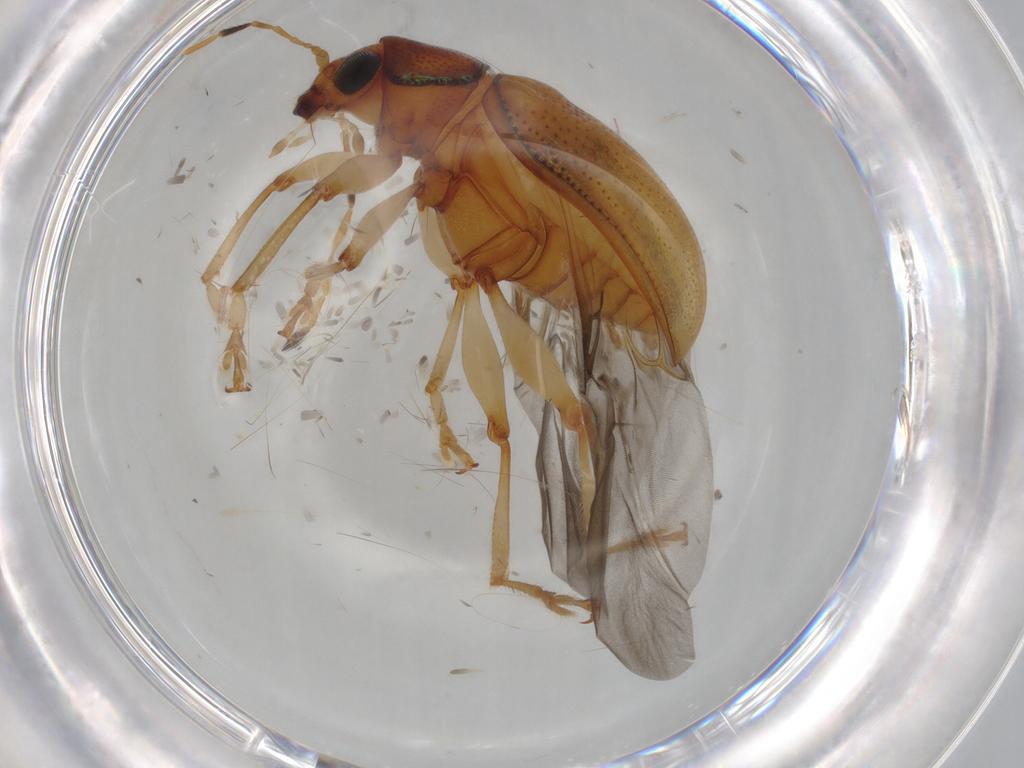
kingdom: Animalia
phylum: Arthropoda
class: Insecta
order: Coleoptera
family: Chrysomelidae
